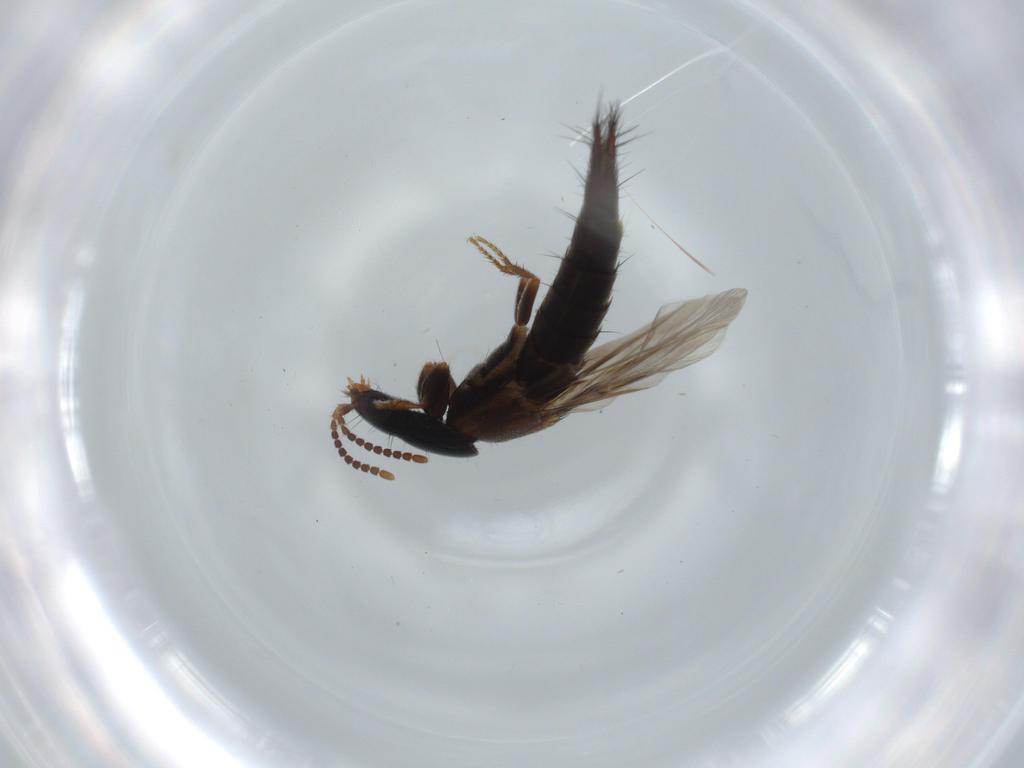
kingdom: Animalia
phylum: Arthropoda
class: Insecta
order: Coleoptera
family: Staphylinidae
